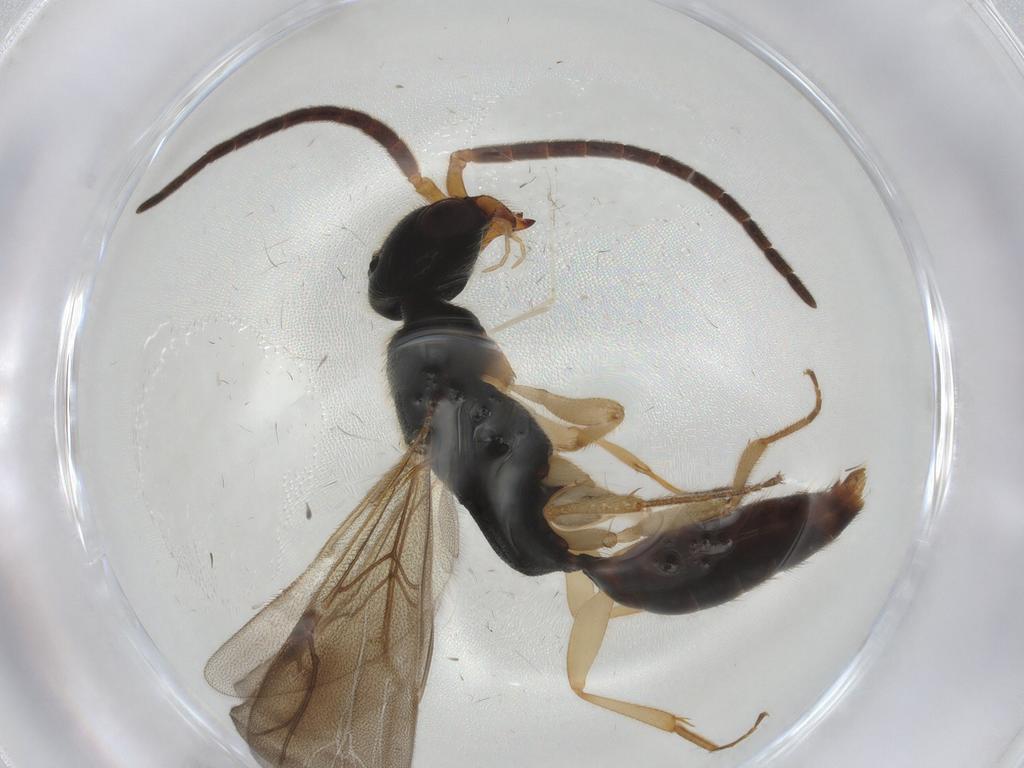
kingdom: Animalia
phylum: Arthropoda
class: Insecta
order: Hymenoptera
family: Bethylidae
